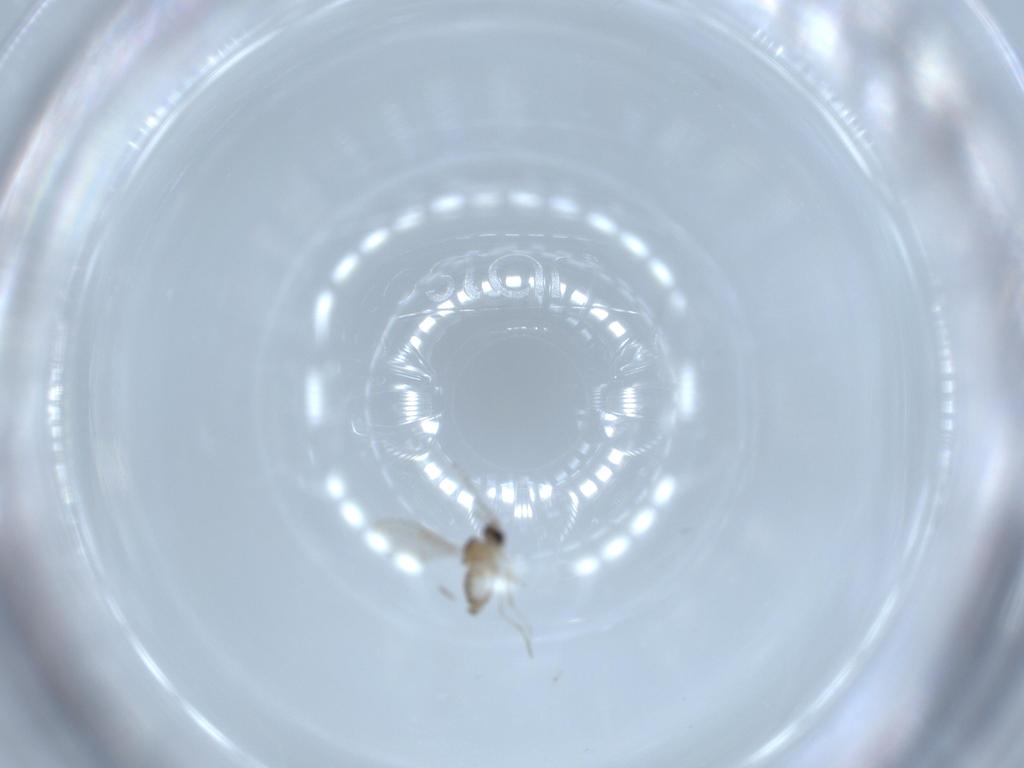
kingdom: Animalia
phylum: Arthropoda
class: Insecta
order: Diptera
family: Cecidomyiidae
